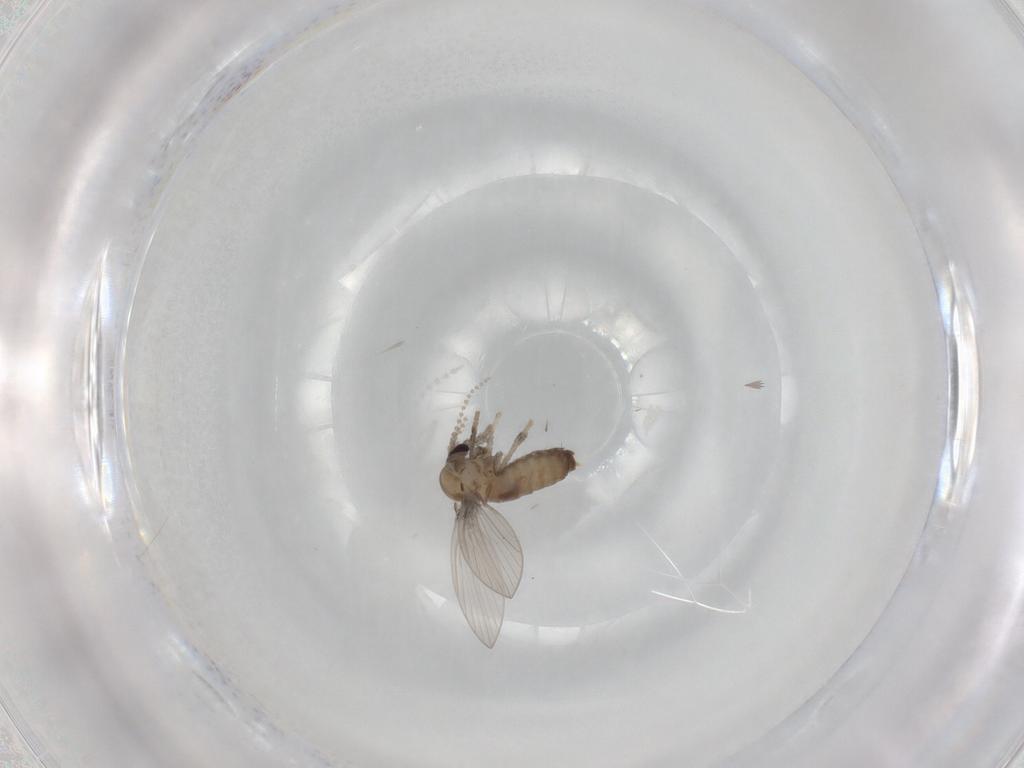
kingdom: Animalia
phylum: Arthropoda
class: Insecta
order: Diptera
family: Psychodidae
